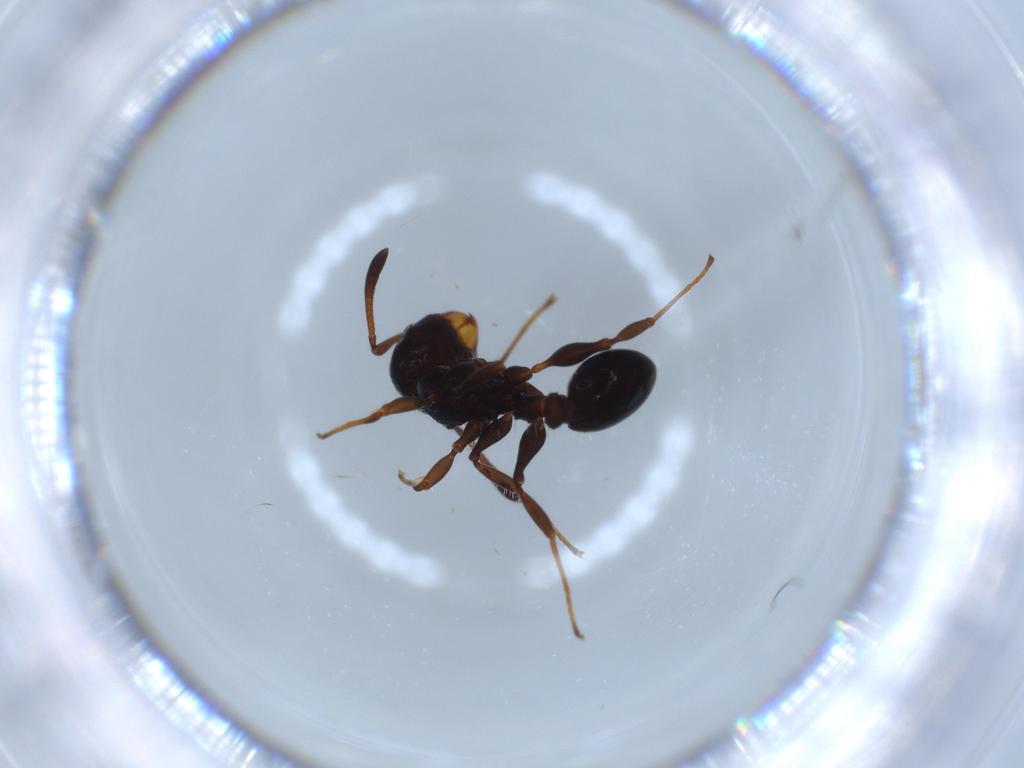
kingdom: Animalia
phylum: Arthropoda
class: Insecta
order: Hymenoptera
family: Formicidae
